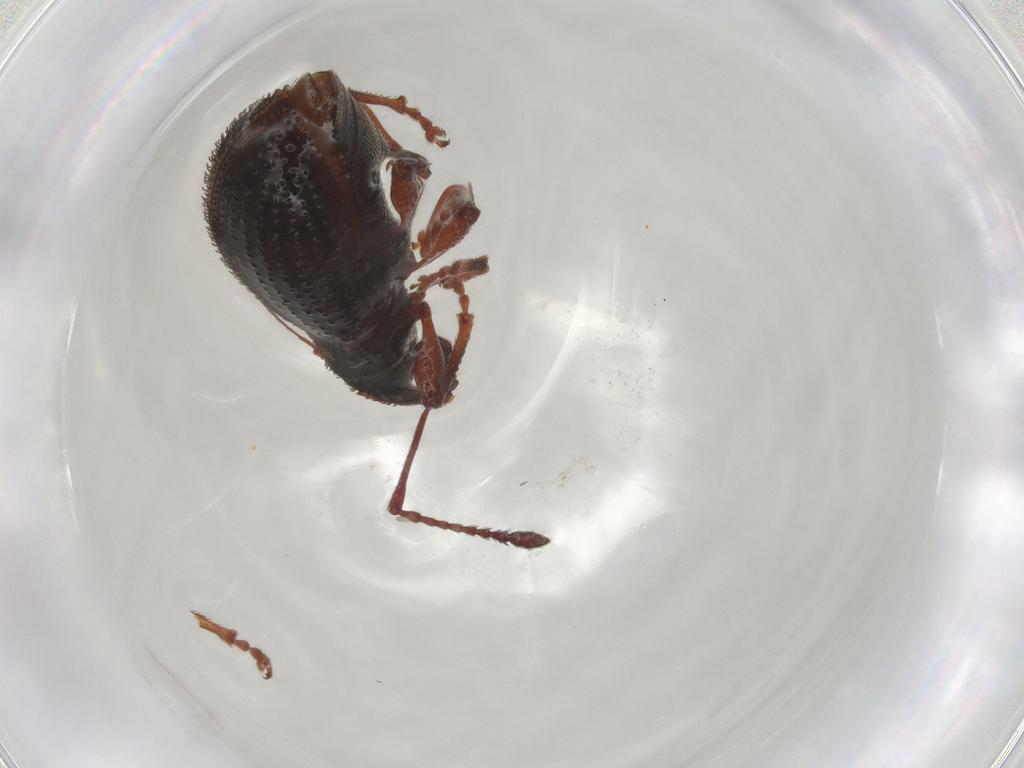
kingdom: Animalia
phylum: Arthropoda
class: Insecta
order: Coleoptera
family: Curculionidae
